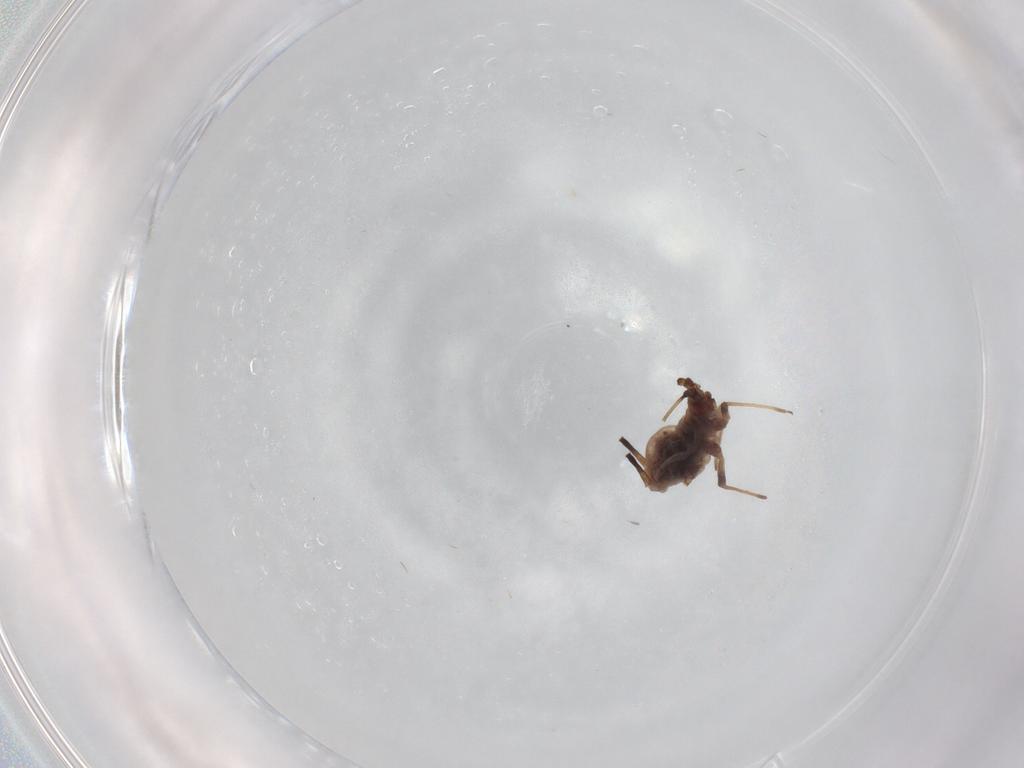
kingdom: Animalia
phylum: Arthropoda
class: Insecta
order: Hemiptera
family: Aphididae
